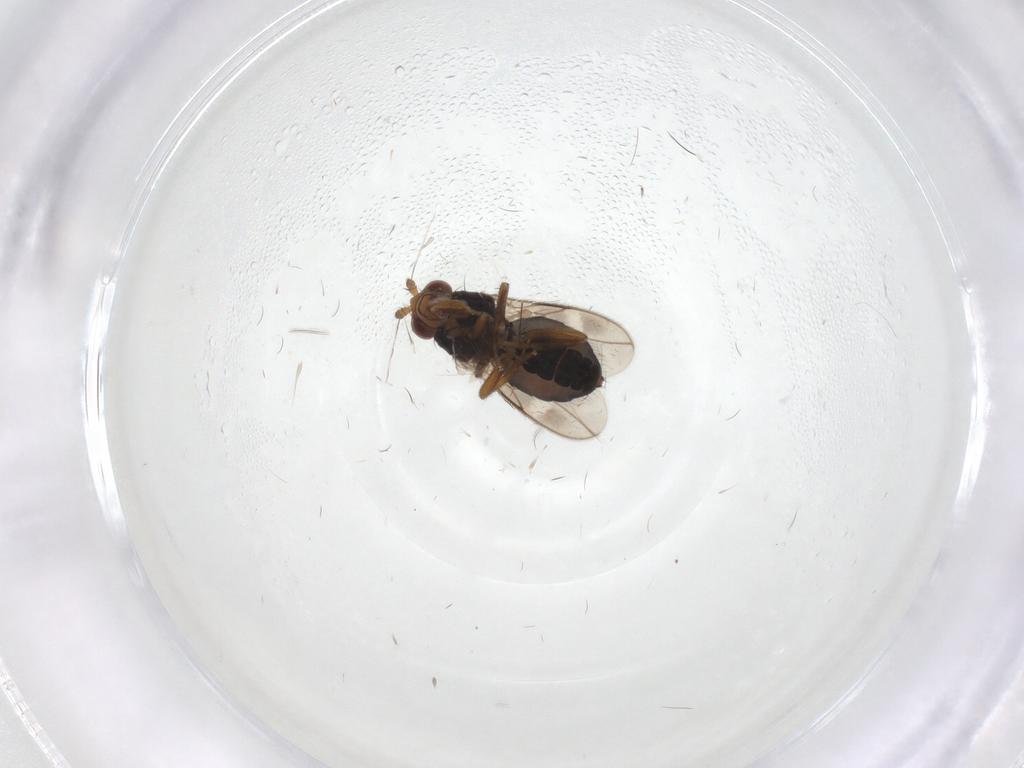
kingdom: Animalia
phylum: Arthropoda
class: Insecta
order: Diptera
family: Sphaeroceridae
